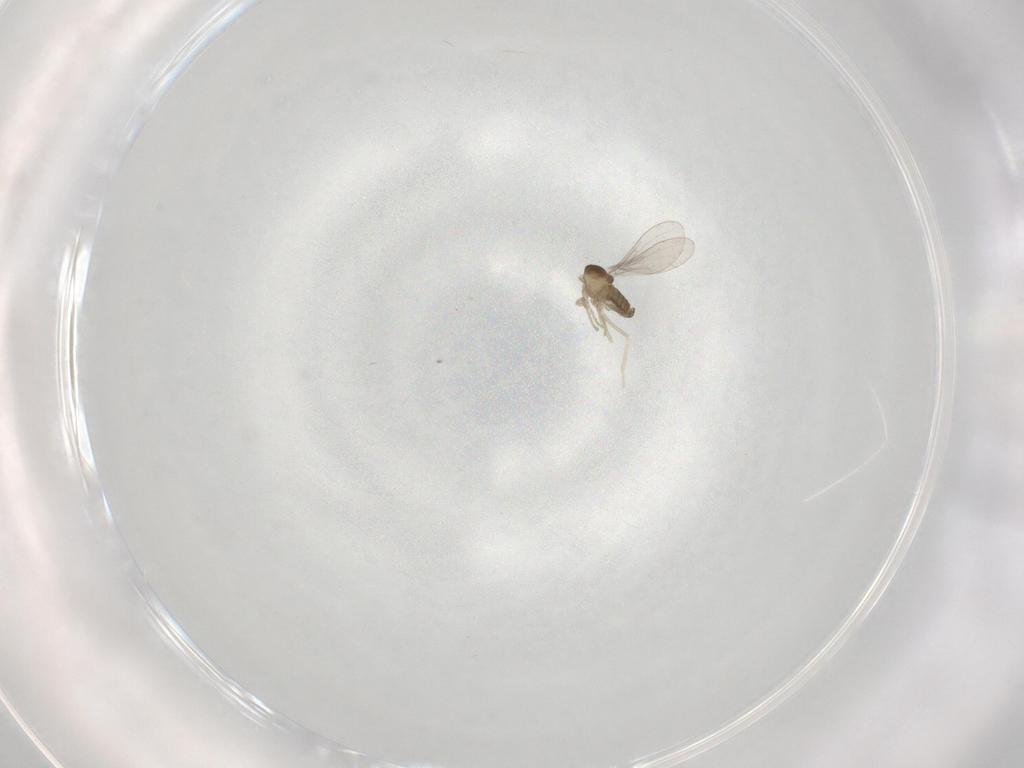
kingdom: Animalia
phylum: Arthropoda
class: Insecta
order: Diptera
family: Cecidomyiidae
